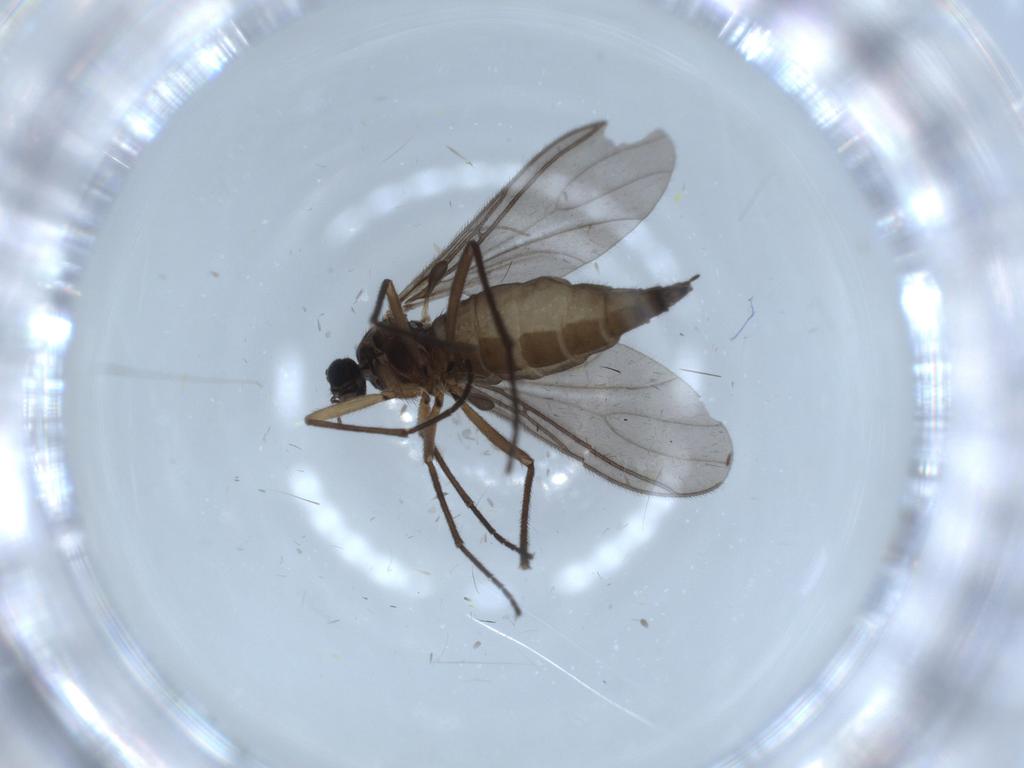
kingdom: Animalia
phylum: Arthropoda
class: Insecta
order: Diptera
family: Sciaridae
